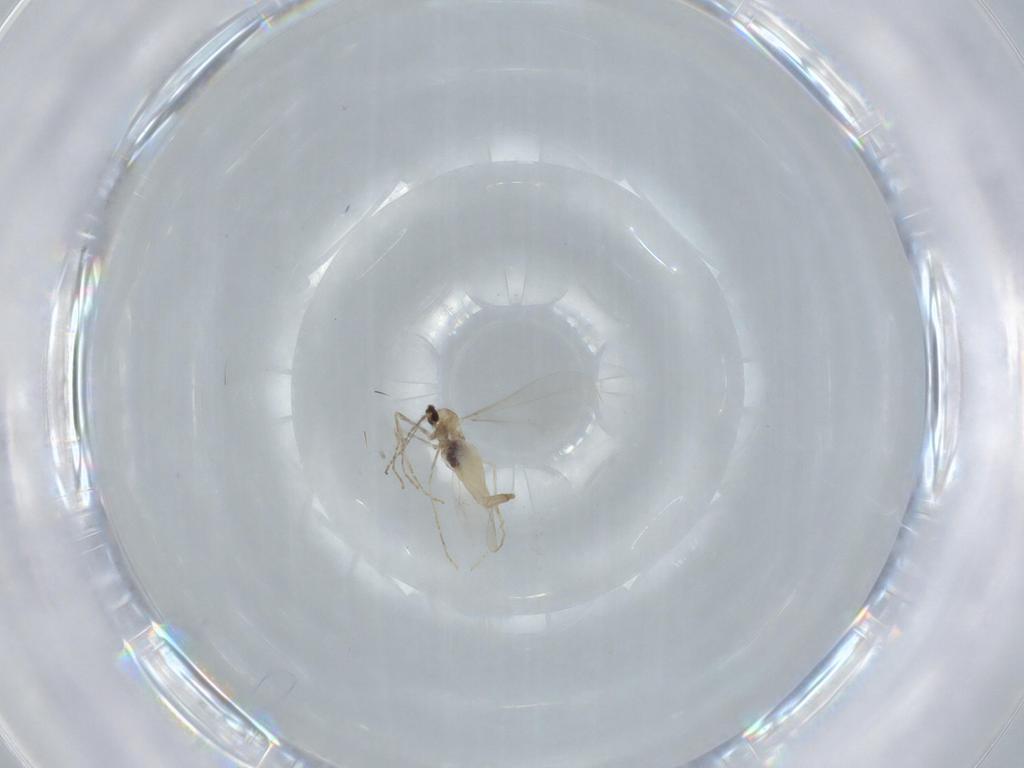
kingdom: Animalia
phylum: Arthropoda
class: Insecta
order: Diptera
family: Cecidomyiidae
